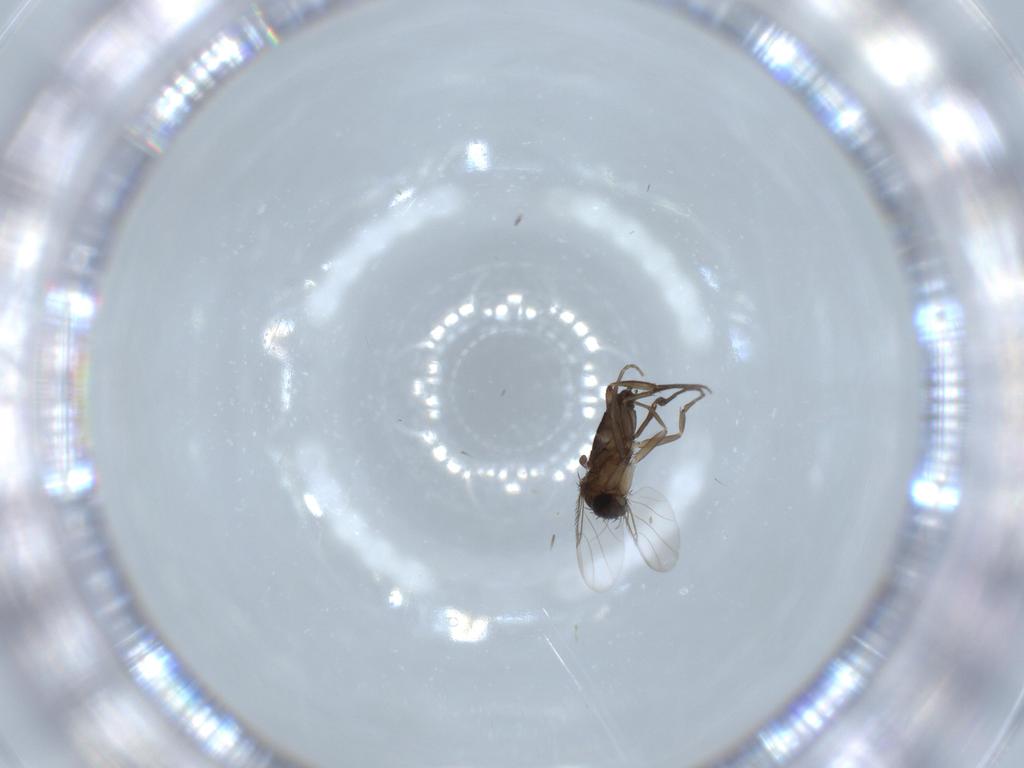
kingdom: Animalia
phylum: Arthropoda
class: Insecta
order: Diptera
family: Phoridae
